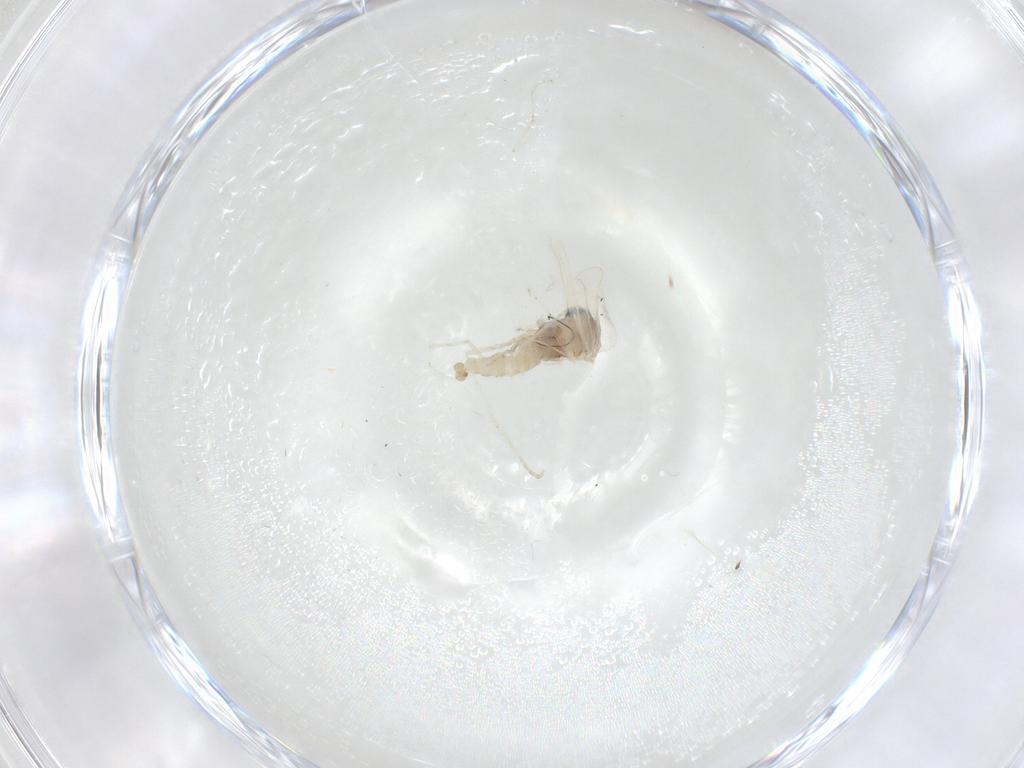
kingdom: Animalia
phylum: Arthropoda
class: Insecta
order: Diptera
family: Cecidomyiidae
